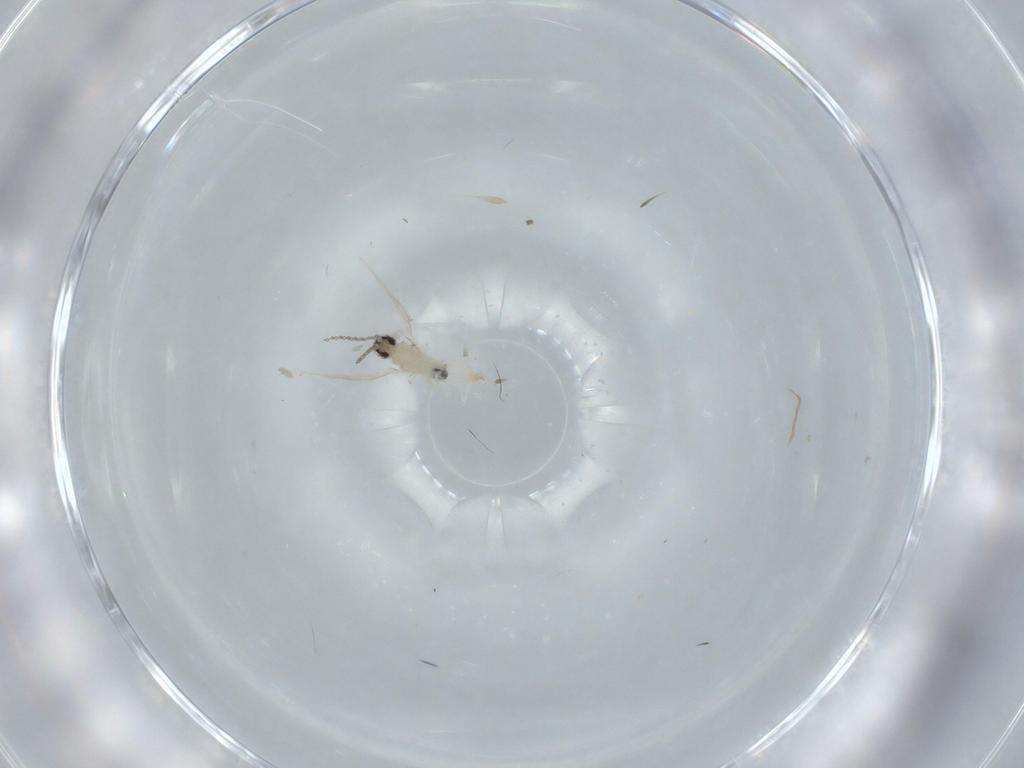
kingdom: Animalia
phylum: Arthropoda
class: Insecta
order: Diptera
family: Cecidomyiidae
